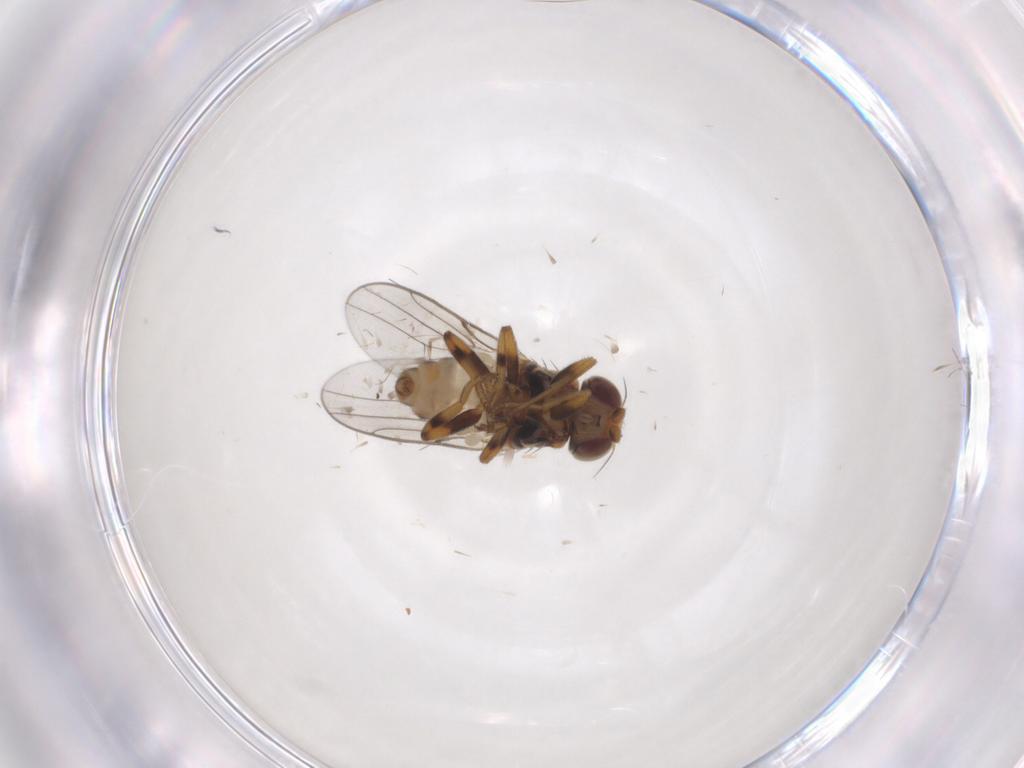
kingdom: Animalia
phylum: Arthropoda
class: Insecta
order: Diptera
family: Chloropidae
